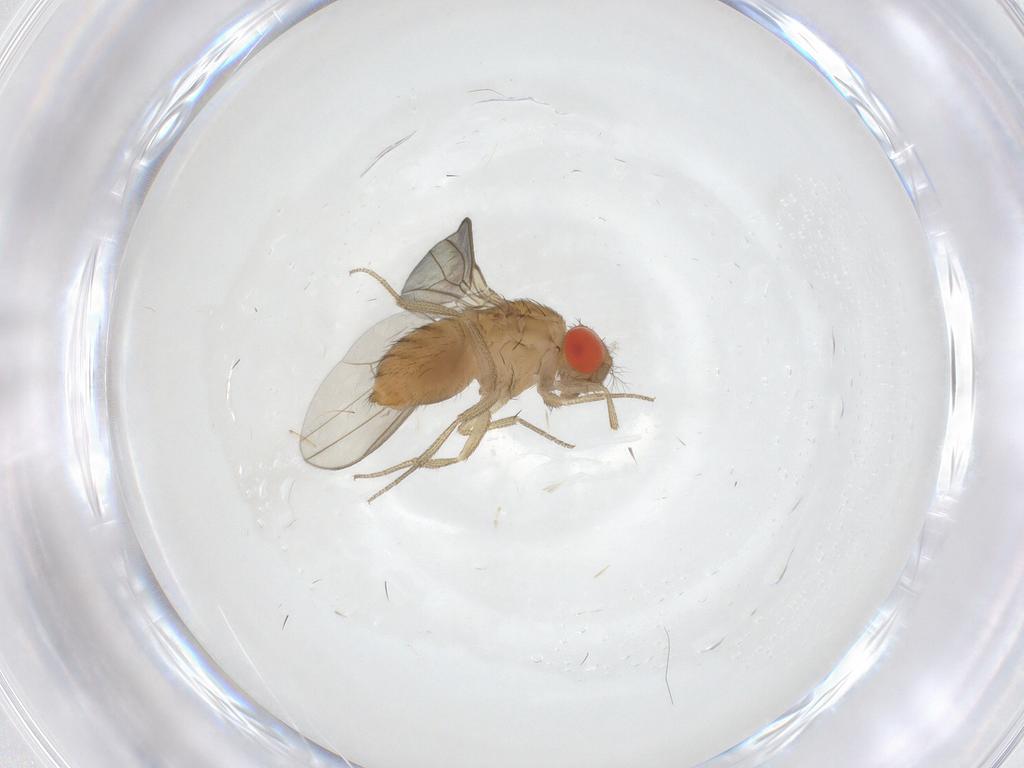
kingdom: Animalia
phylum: Arthropoda
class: Insecta
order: Diptera
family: Drosophilidae
